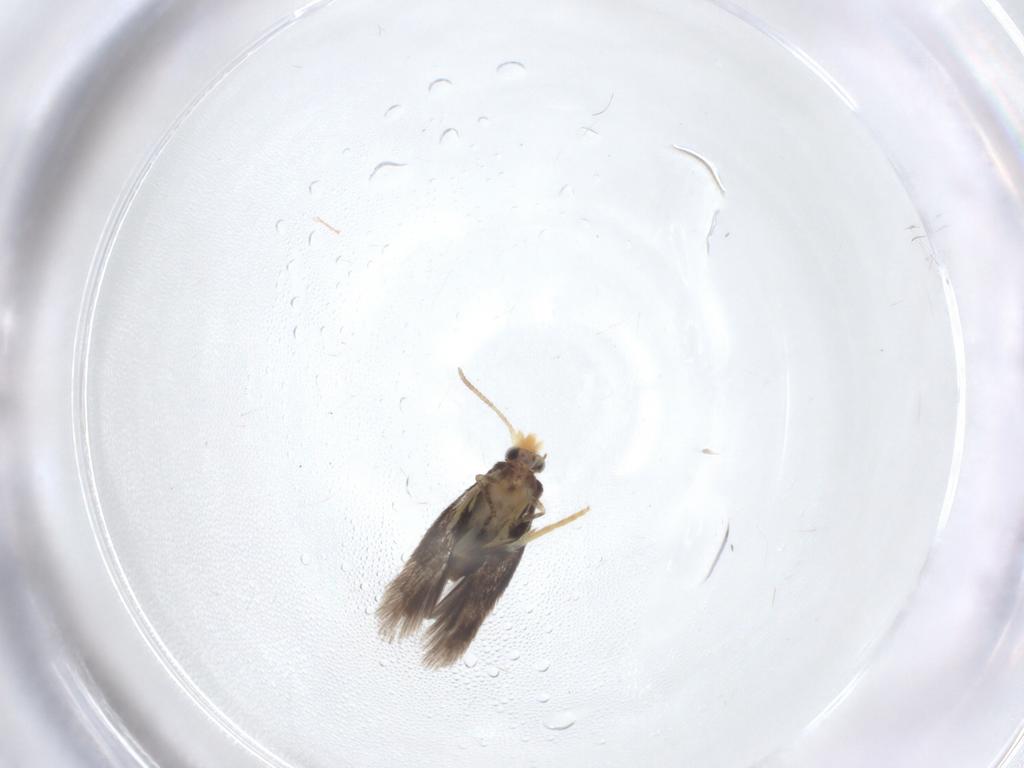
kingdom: Animalia
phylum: Arthropoda
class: Insecta
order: Lepidoptera
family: Nepticulidae
